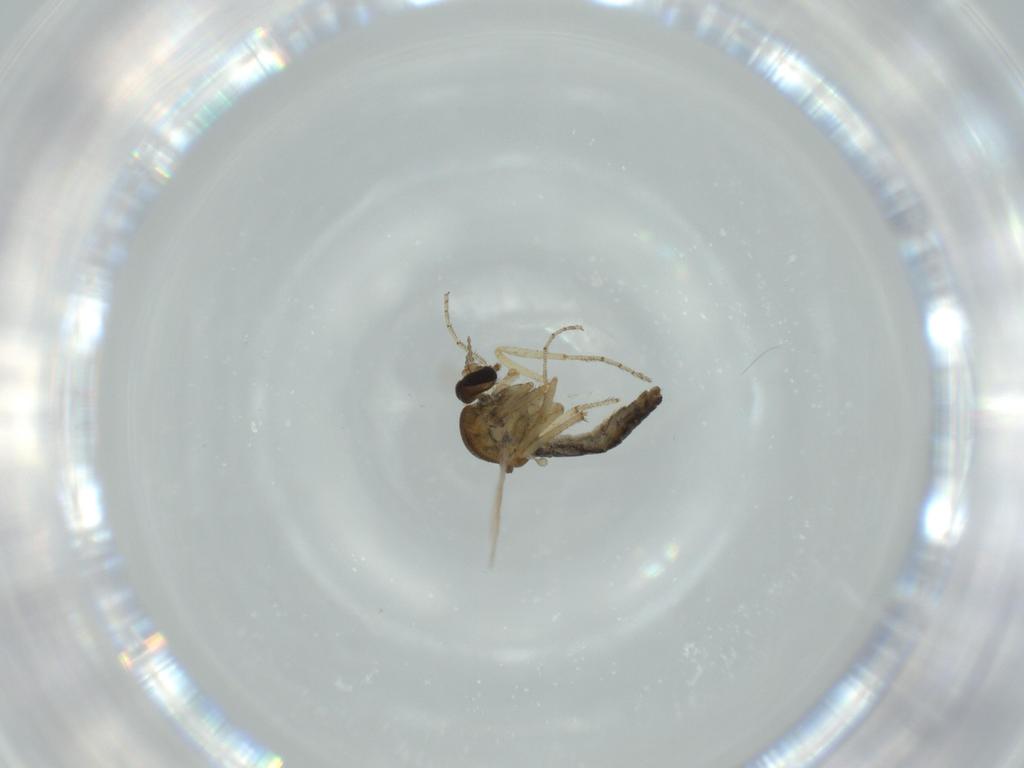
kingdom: Animalia
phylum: Arthropoda
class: Insecta
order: Diptera
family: Ceratopogonidae
